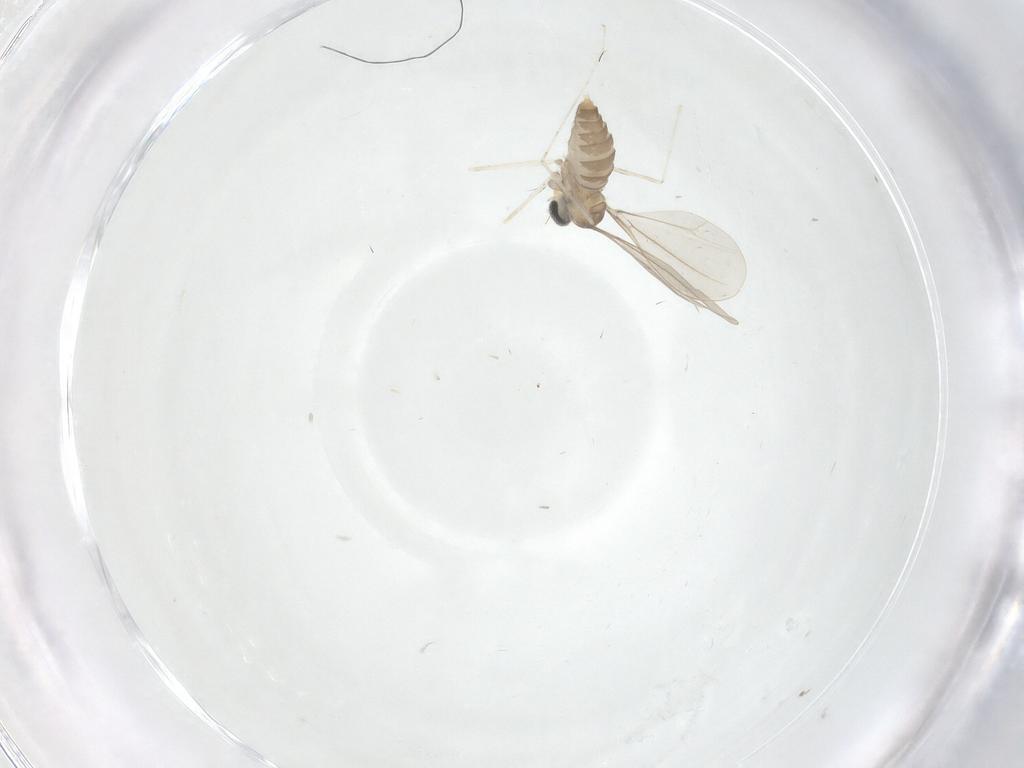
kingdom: Animalia
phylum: Arthropoda
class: Insecta
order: Diptera
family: Cecidomyiidae
